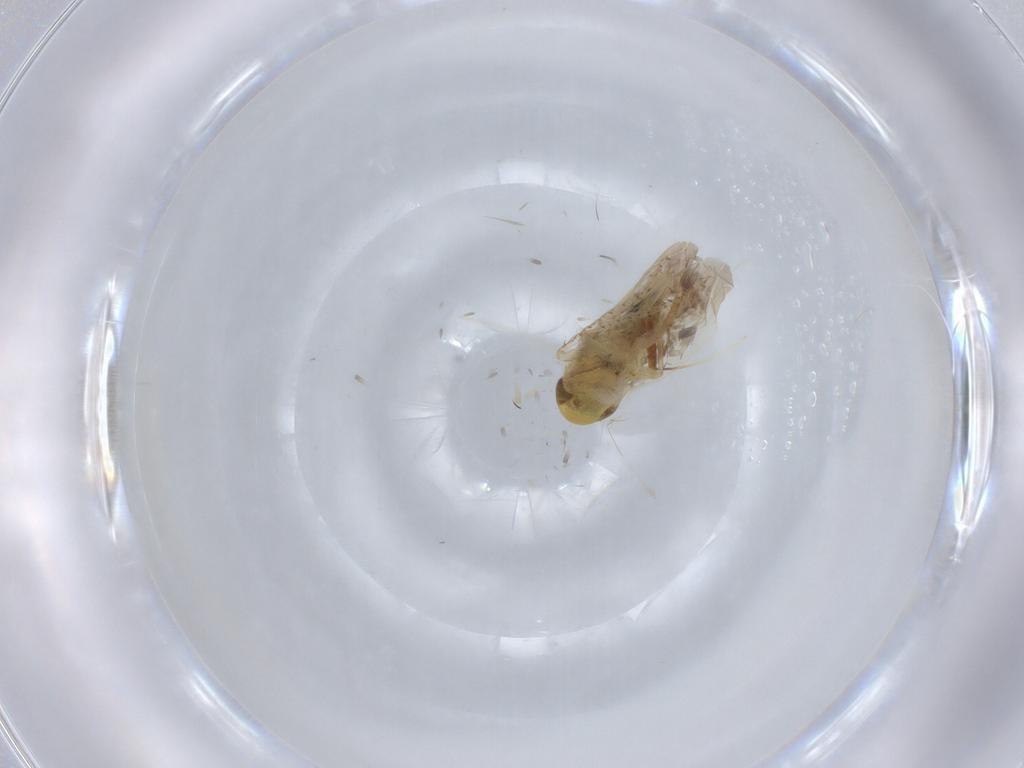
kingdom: Animalia
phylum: Arthropoda
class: Insecta
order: Hemiptera
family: Cicadellidae
